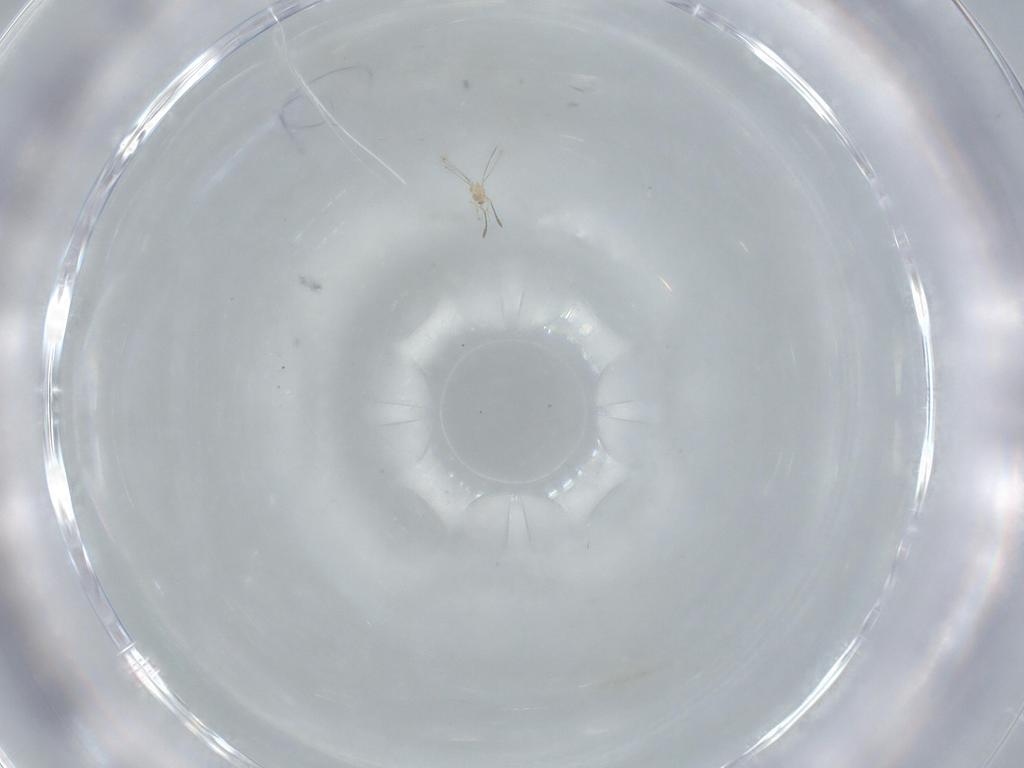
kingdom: Animalia
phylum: Arthropoda
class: Insecta
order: Hymenoptera
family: Mymaridae
